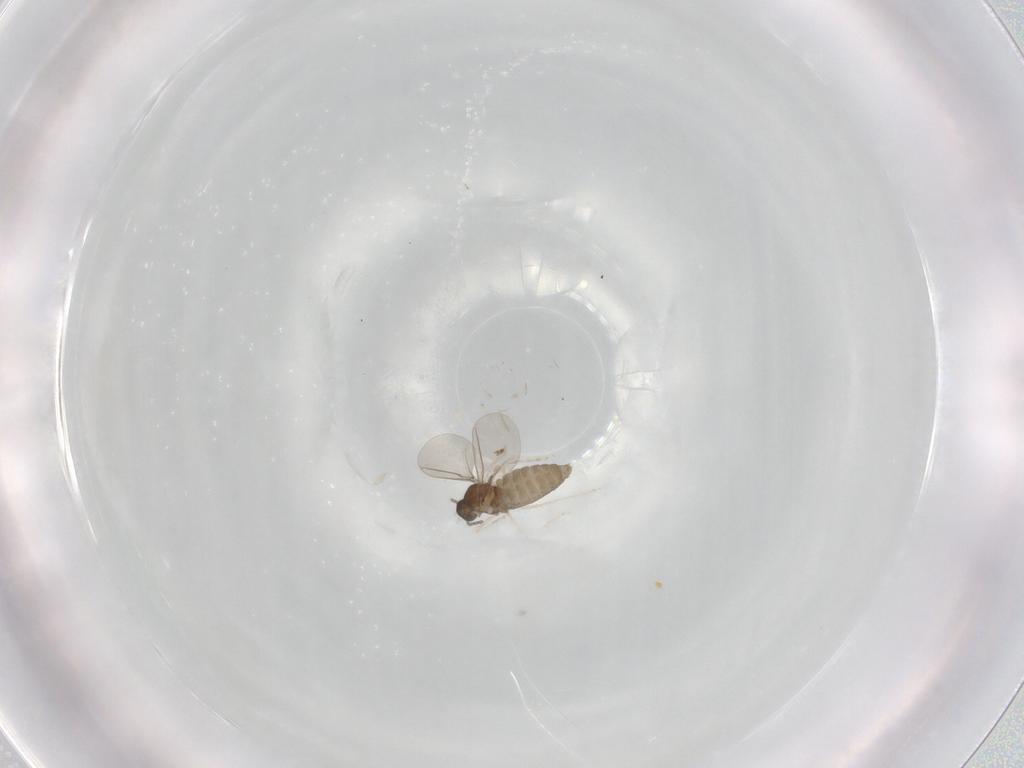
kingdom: Animalia
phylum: Arthropoda
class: Insecta
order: Diptera
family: Cecidomyiidae
